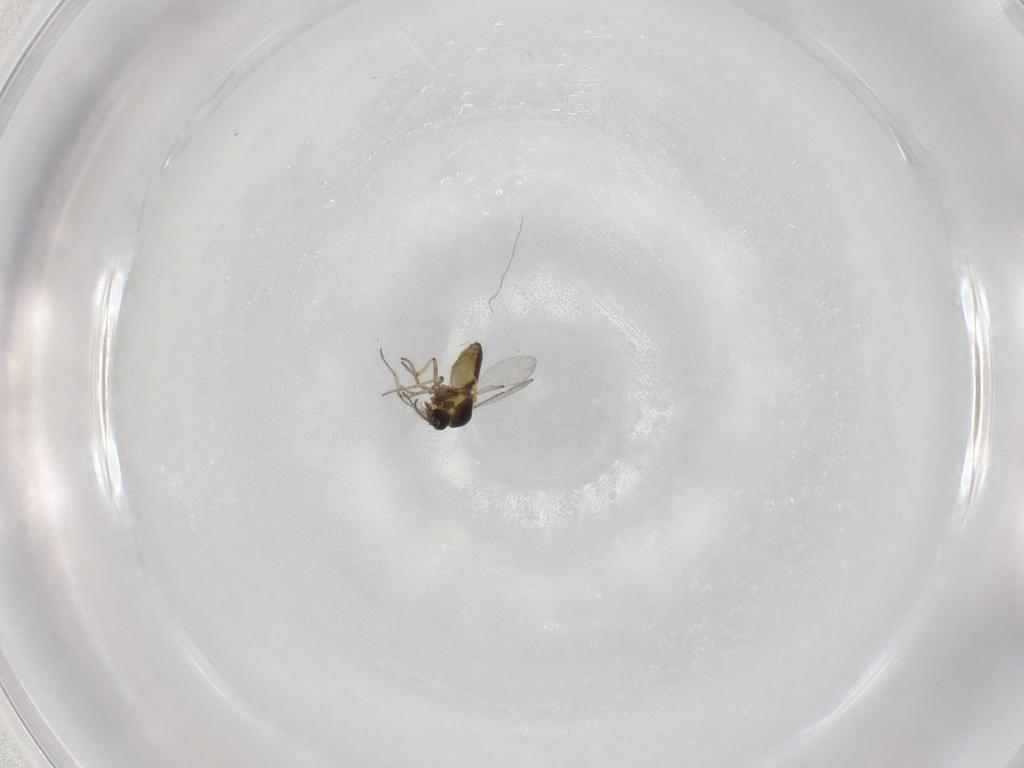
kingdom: Animalia
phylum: Arthropoda
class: Insecta
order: Diptera
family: Ceratopogonidae
